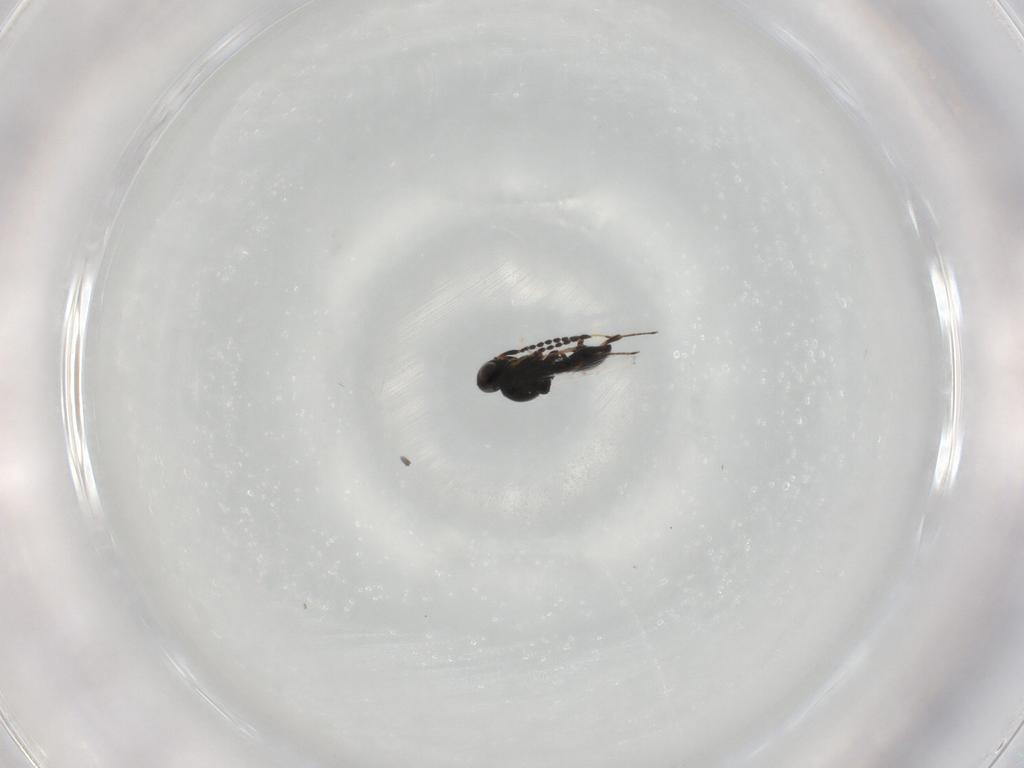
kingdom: Animalia
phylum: Arthropoda
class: Insecta
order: Hymenoptera
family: Platygastridae
